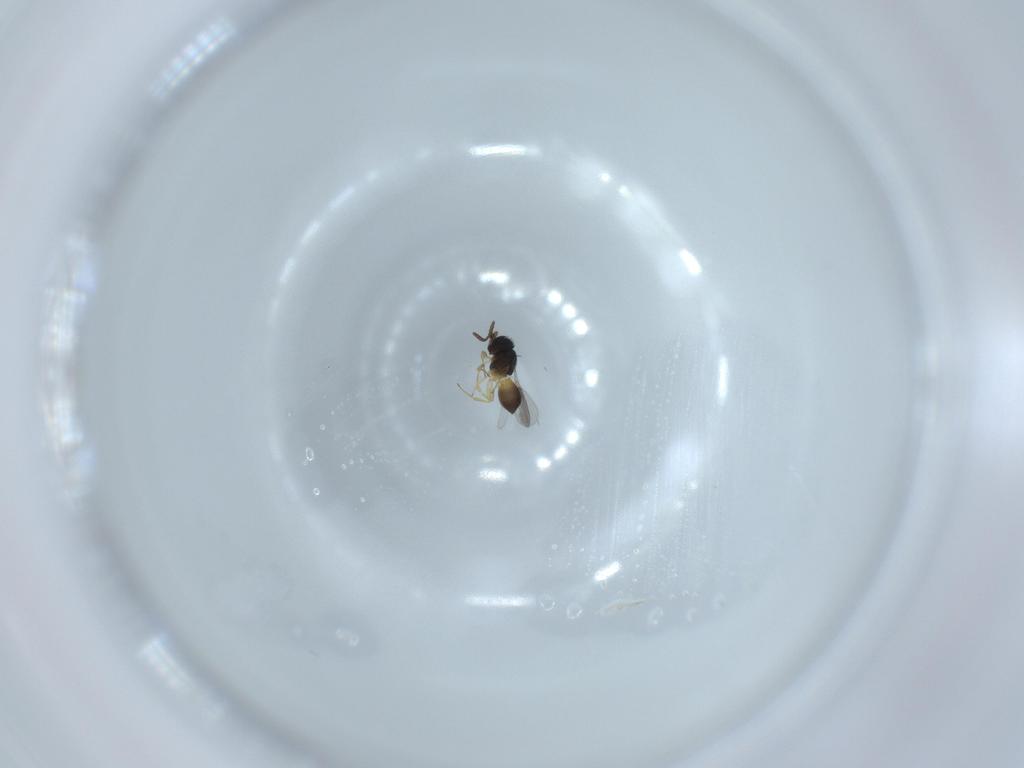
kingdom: Animalia
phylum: Arthropoda
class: Insecta
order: Hymenoptera
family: Scelionidae
